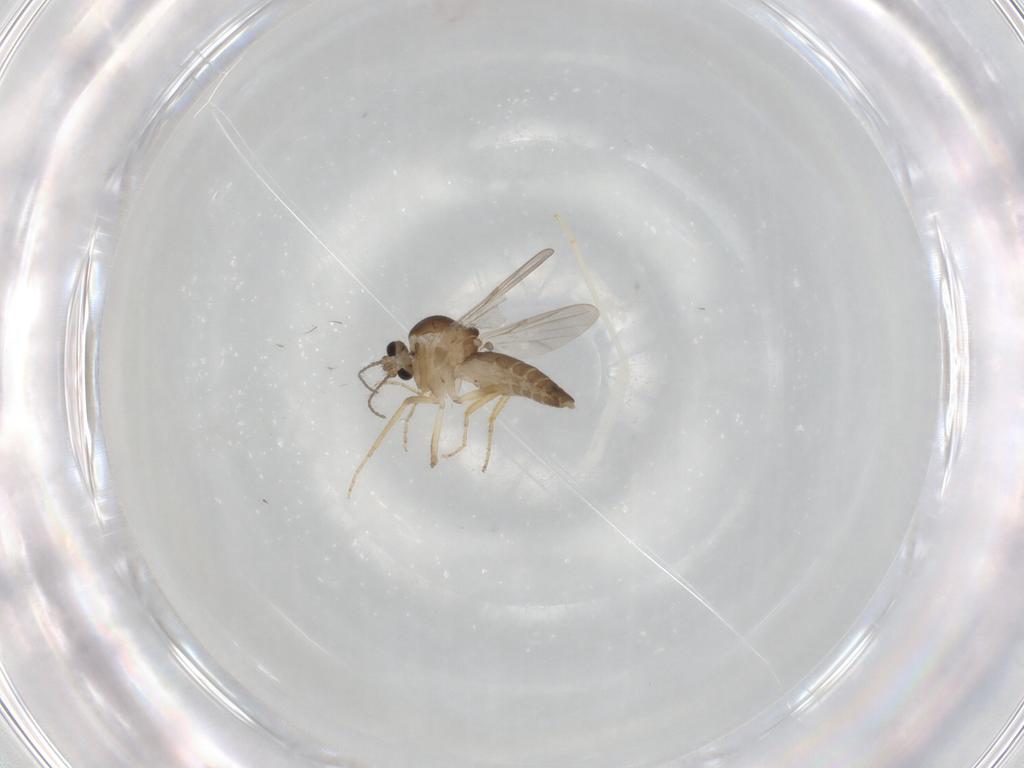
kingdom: Animalia
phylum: Arthropoda
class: Insecta
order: Diptera
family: Ceratopogonidae
